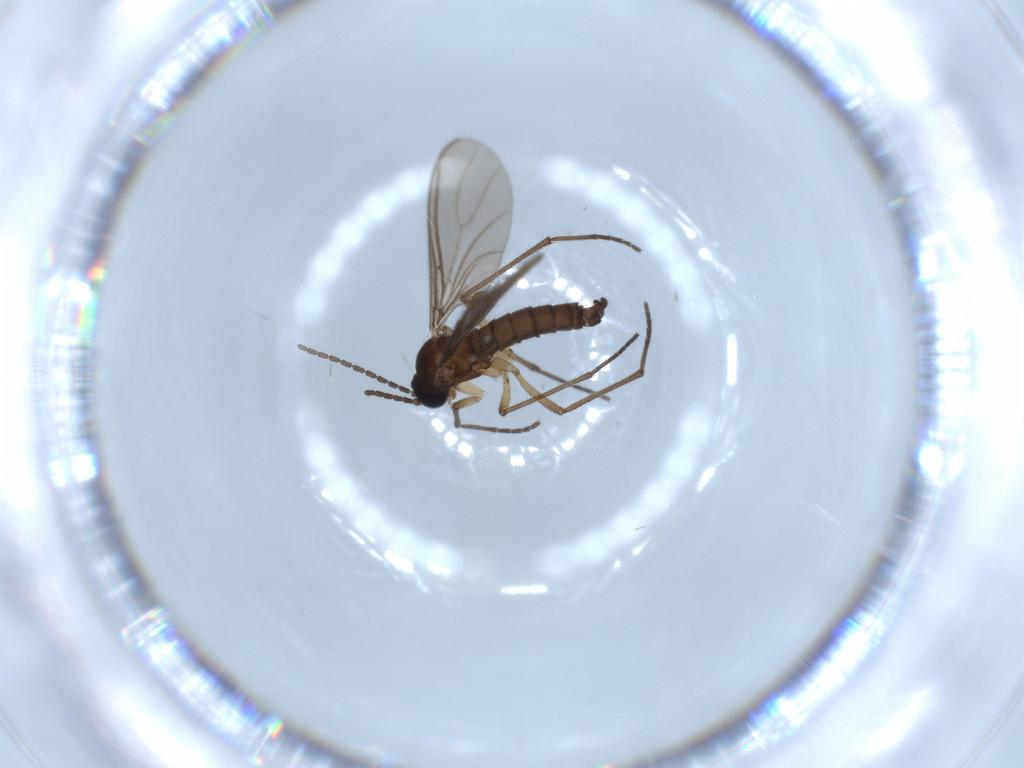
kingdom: Animalia
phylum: Arthropoda
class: Insecta
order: Diptera
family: Sciaridae
